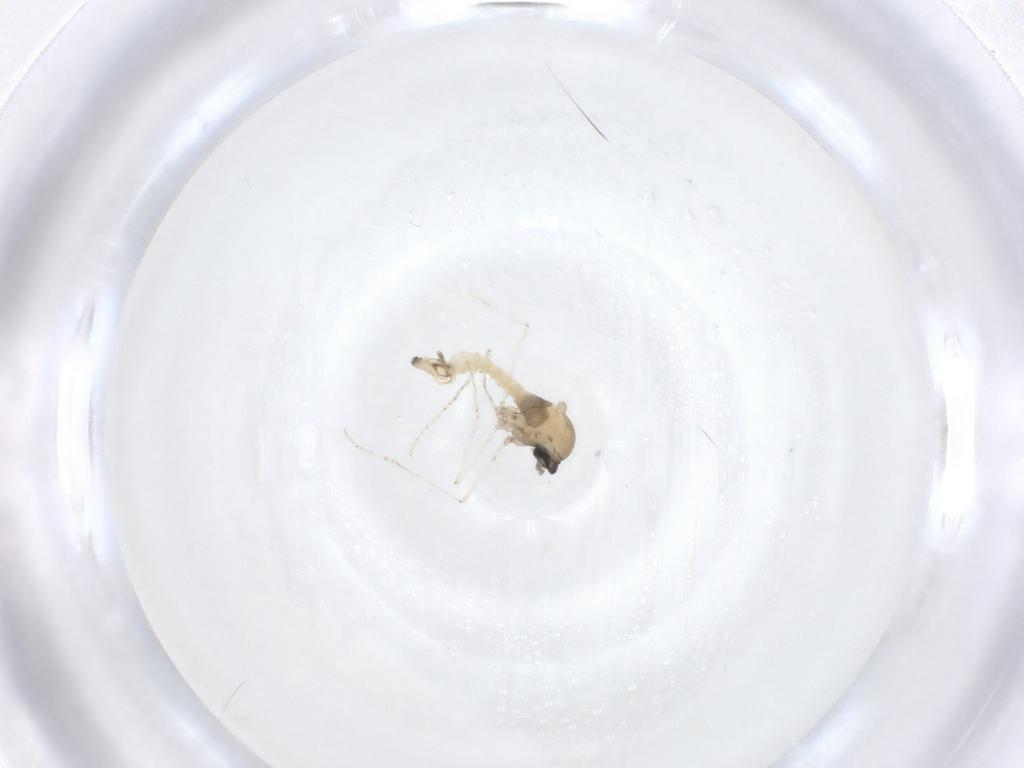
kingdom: Animalia
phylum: Arthropoda
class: Insecta
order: Diptera
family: Cecidomyiidae
